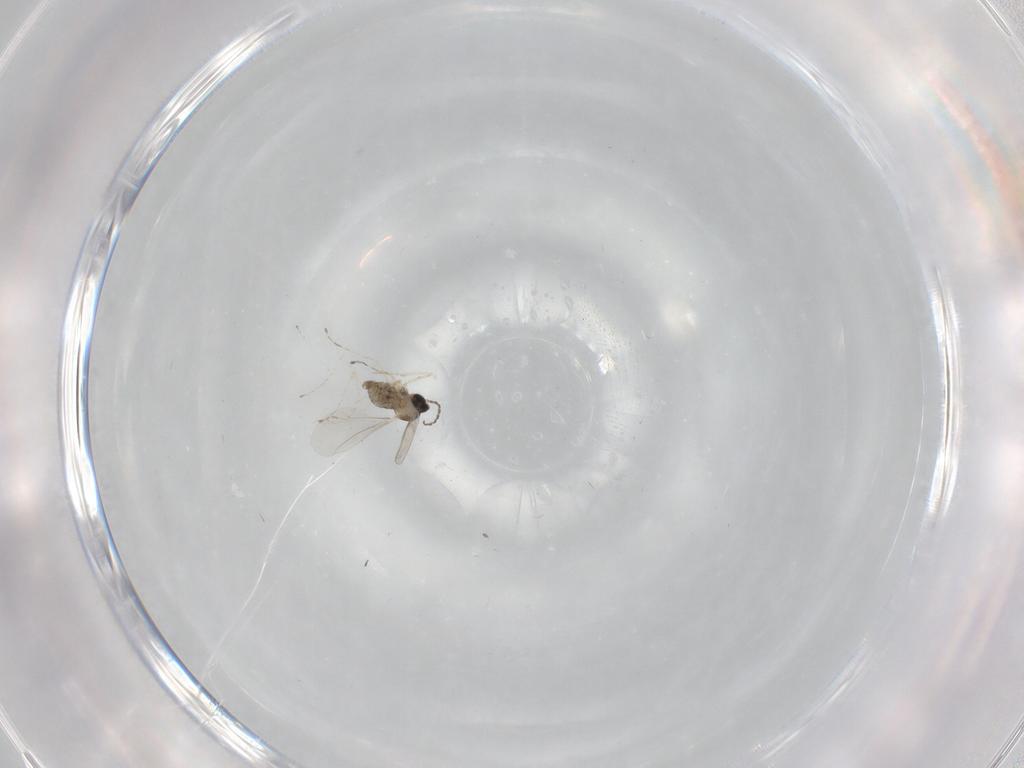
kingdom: Animalia
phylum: Arthropoda
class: Insecta
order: Diptera
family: Cecidomyiidae
